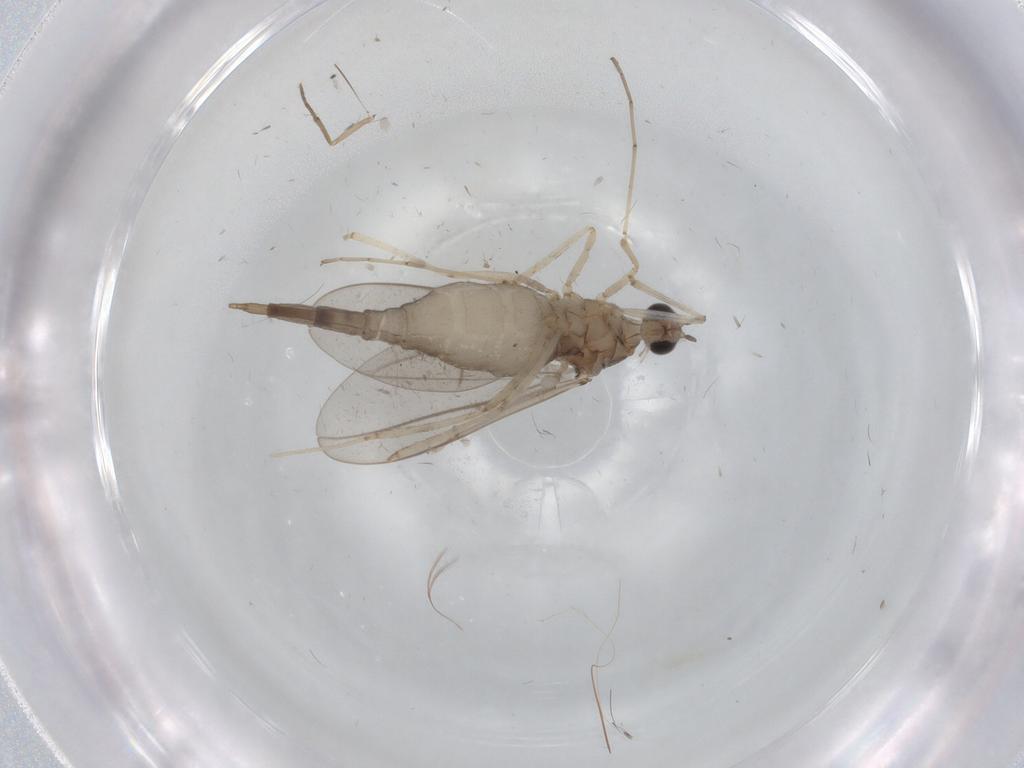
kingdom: Animalia
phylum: Arthropoda
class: Insecta
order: Diptera
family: Cecidomyiidae
